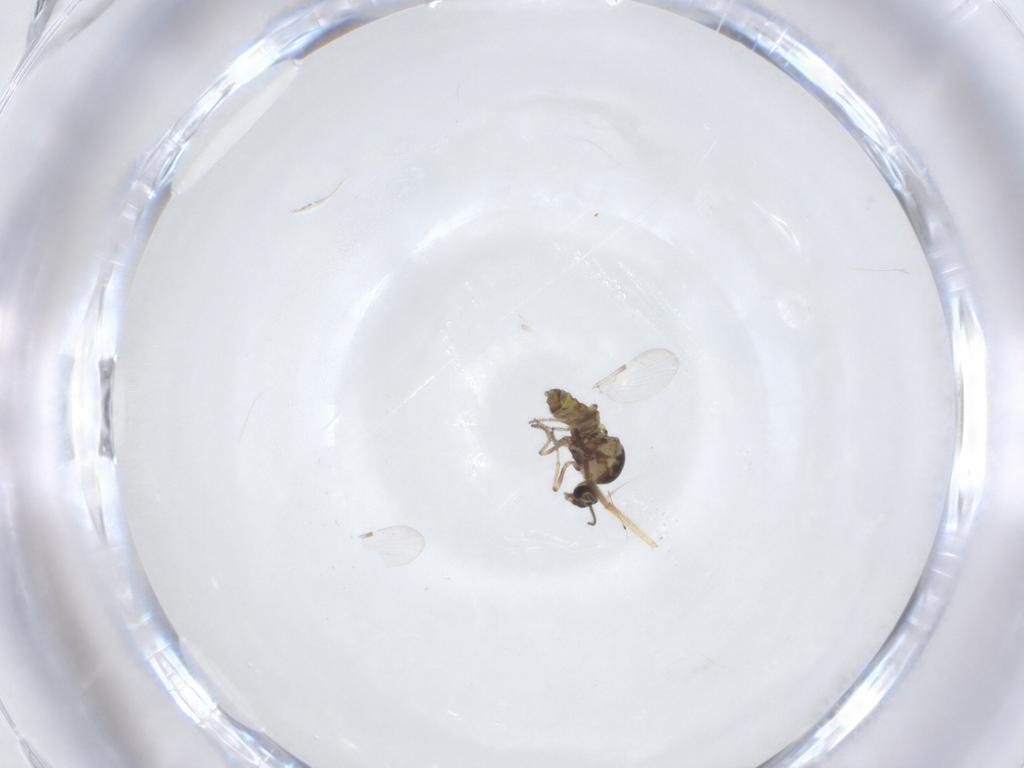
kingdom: Animalia
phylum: Arthropoda
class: Insecta
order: Diptera
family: Ceratopogonidae
